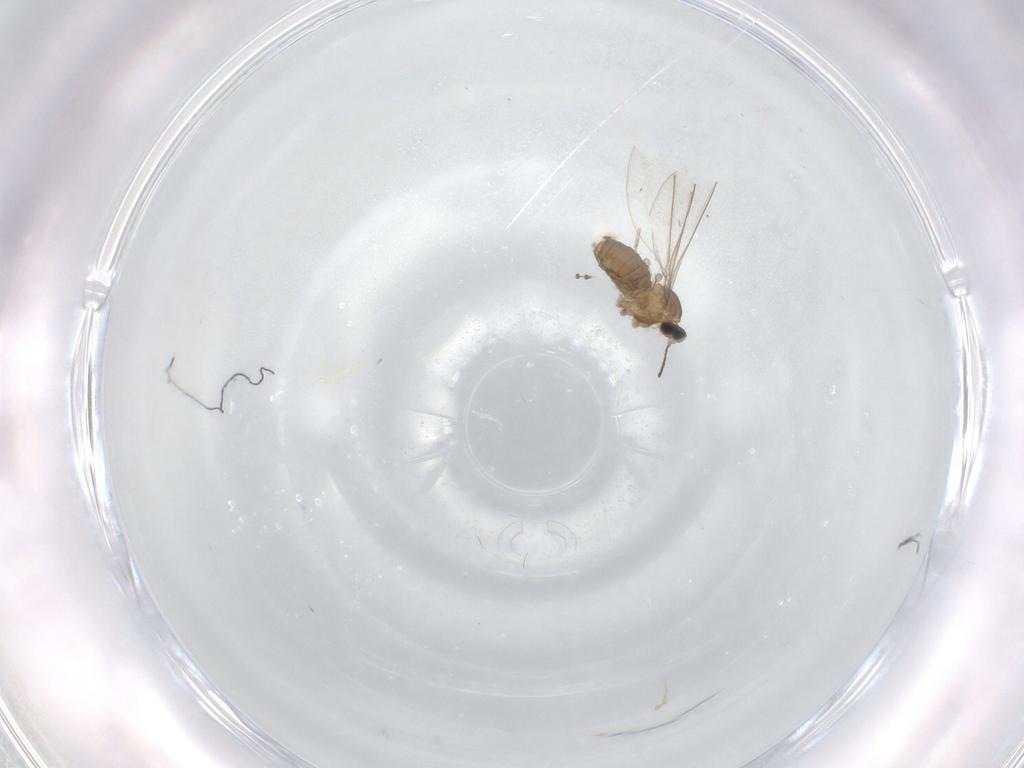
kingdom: Animalia
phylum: Arthropoda
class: Insecta
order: Diptera
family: Cecidomyiidae
